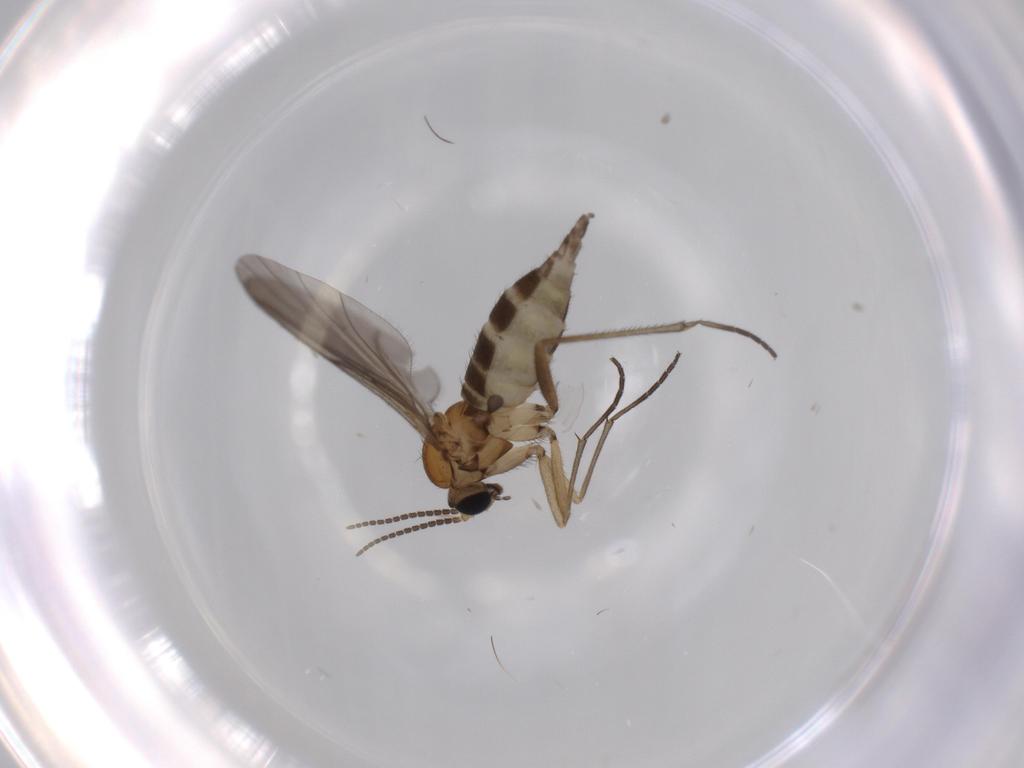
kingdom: Animalia
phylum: Arthropoda
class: Insecta
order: Diptera
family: Sciaridae
